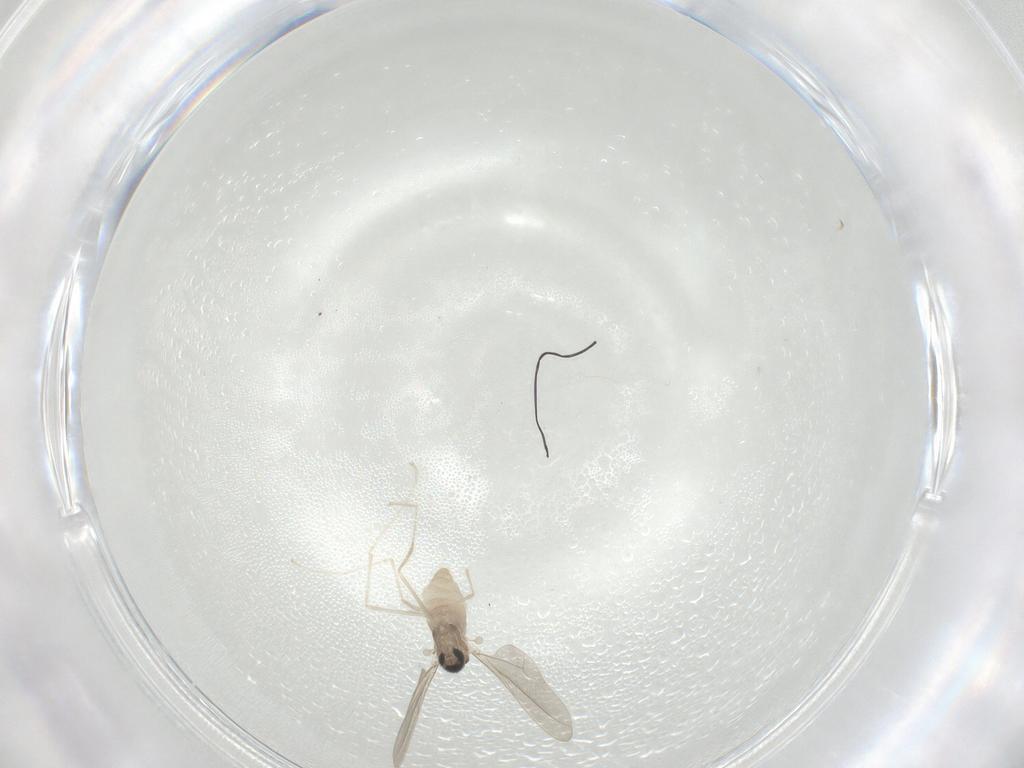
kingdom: Animalia
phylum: Arthropoda
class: Insecta
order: Diptera
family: Cecidomyiidae
